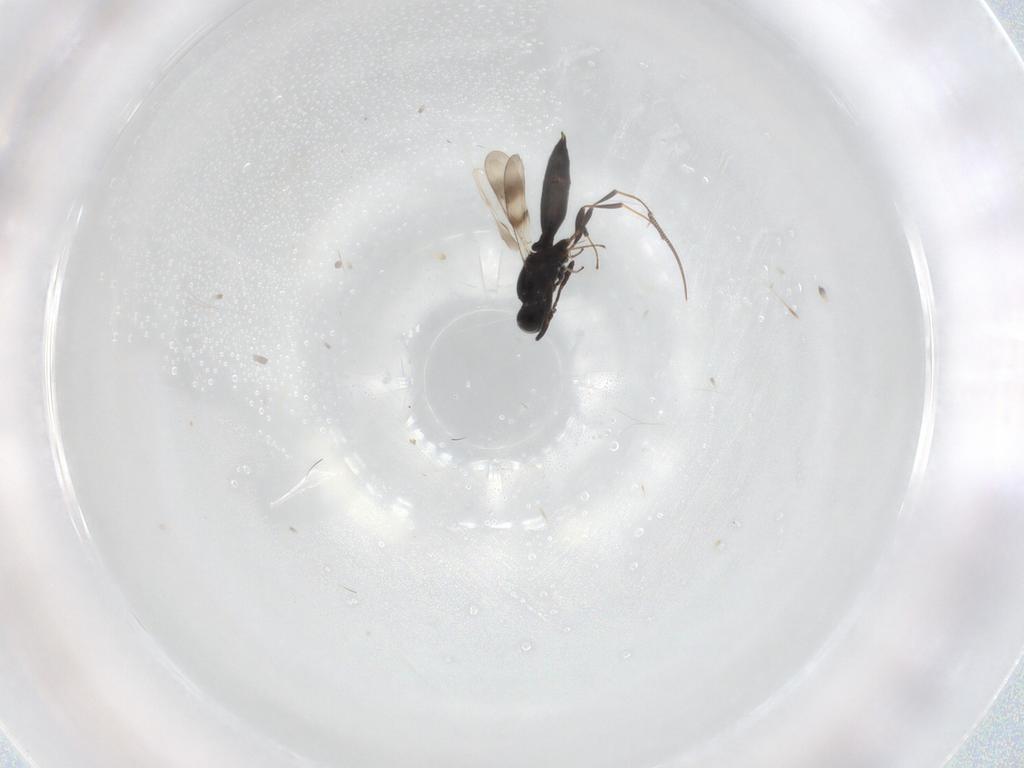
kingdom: Animalia
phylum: Arthropoda
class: Insecta
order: Hymenoptera
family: Scelionidae
